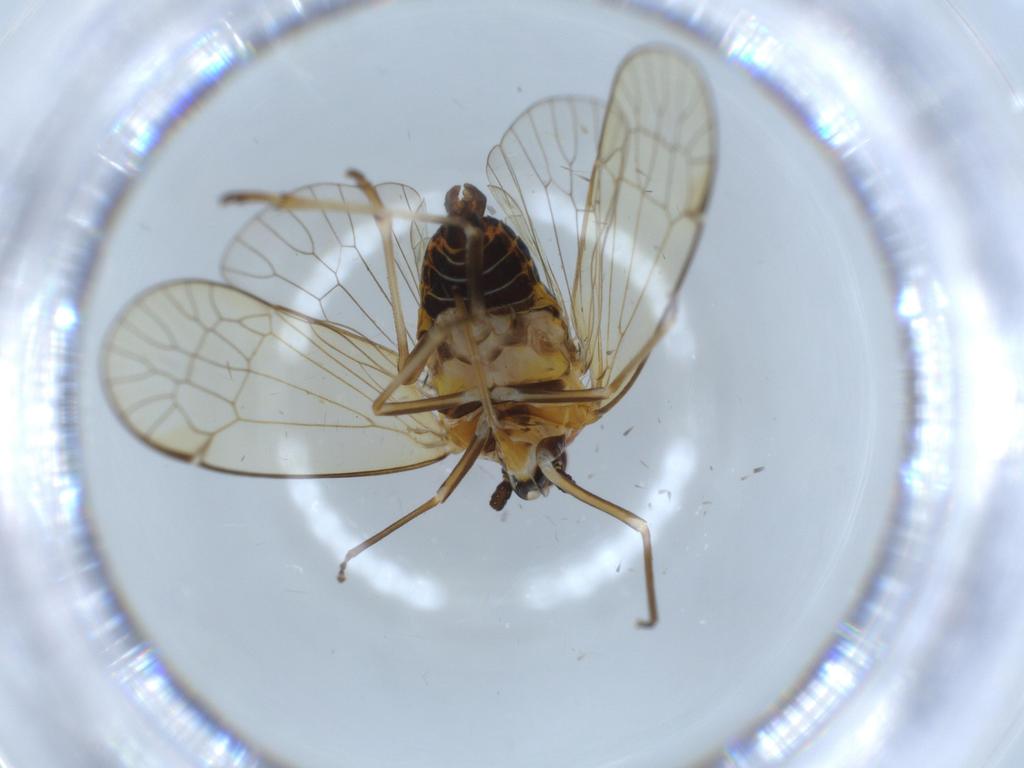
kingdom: Animalia
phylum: Arthropoda
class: Insecta
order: Hemiptera
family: Kinnaridae
